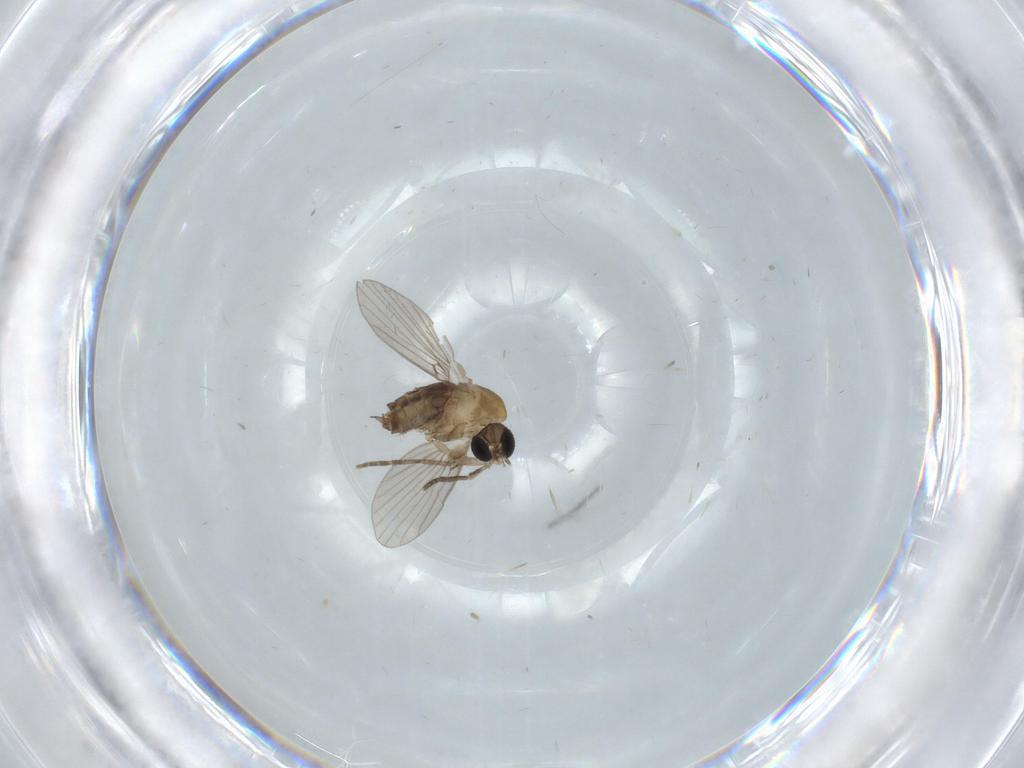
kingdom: Animalia
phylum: Arthropoda
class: Insecta
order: Diptera
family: Psychodidae
